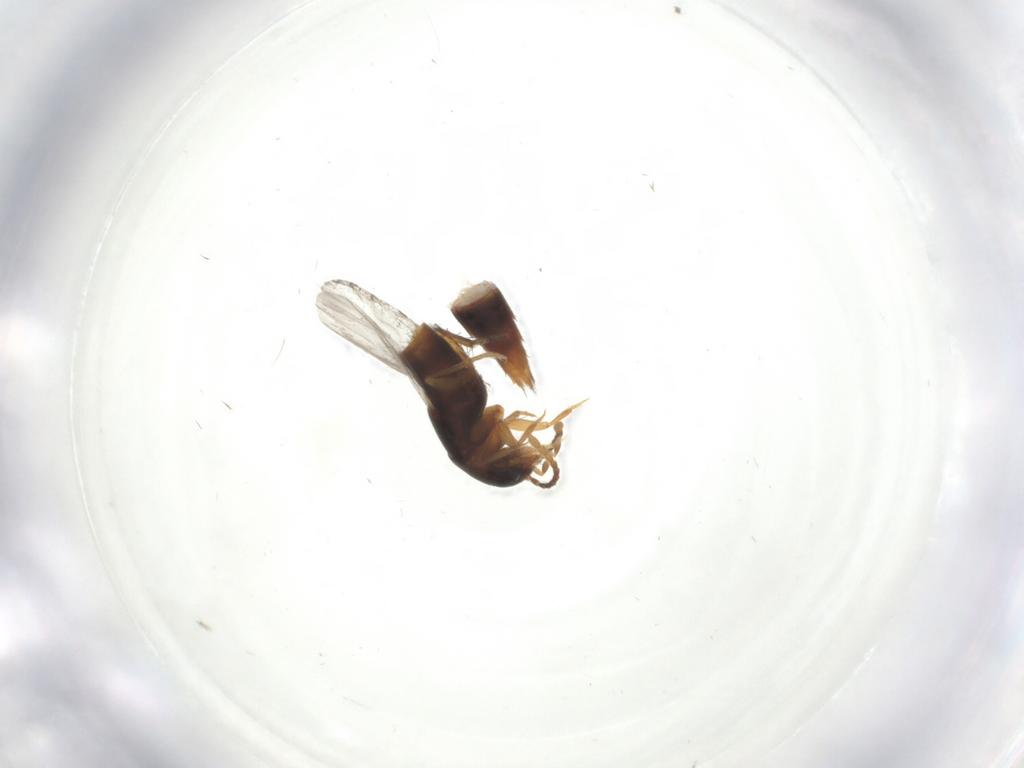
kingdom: Animalia
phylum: Arthropoda
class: Insecta
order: Coleoptera
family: Staphylinidae
